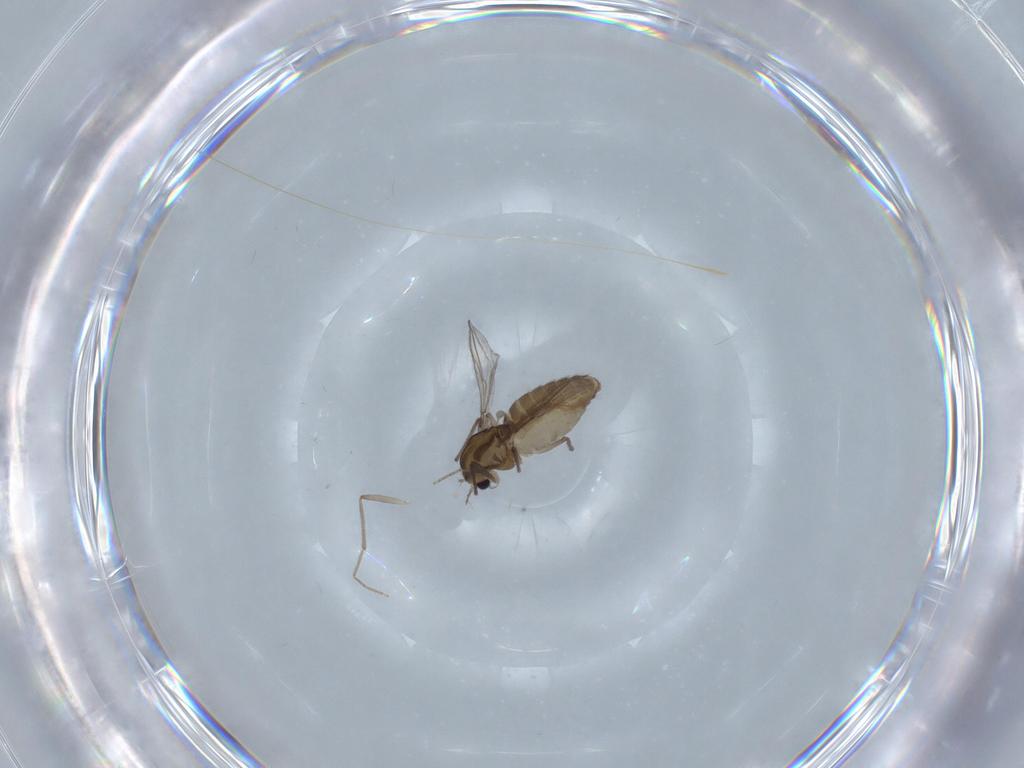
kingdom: Animalia
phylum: Arthropoda
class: Insecta
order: Diptera
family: Chironomidae
